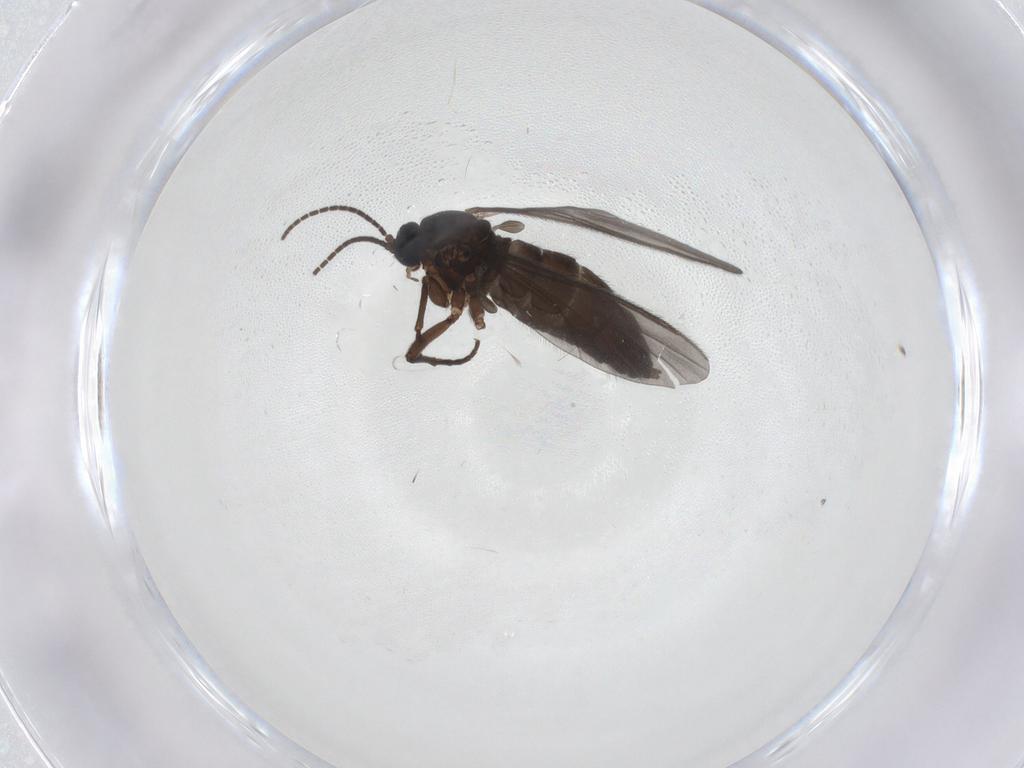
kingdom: Animalia
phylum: Arthropoda
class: Insecta
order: Diptera
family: Sciaridae
